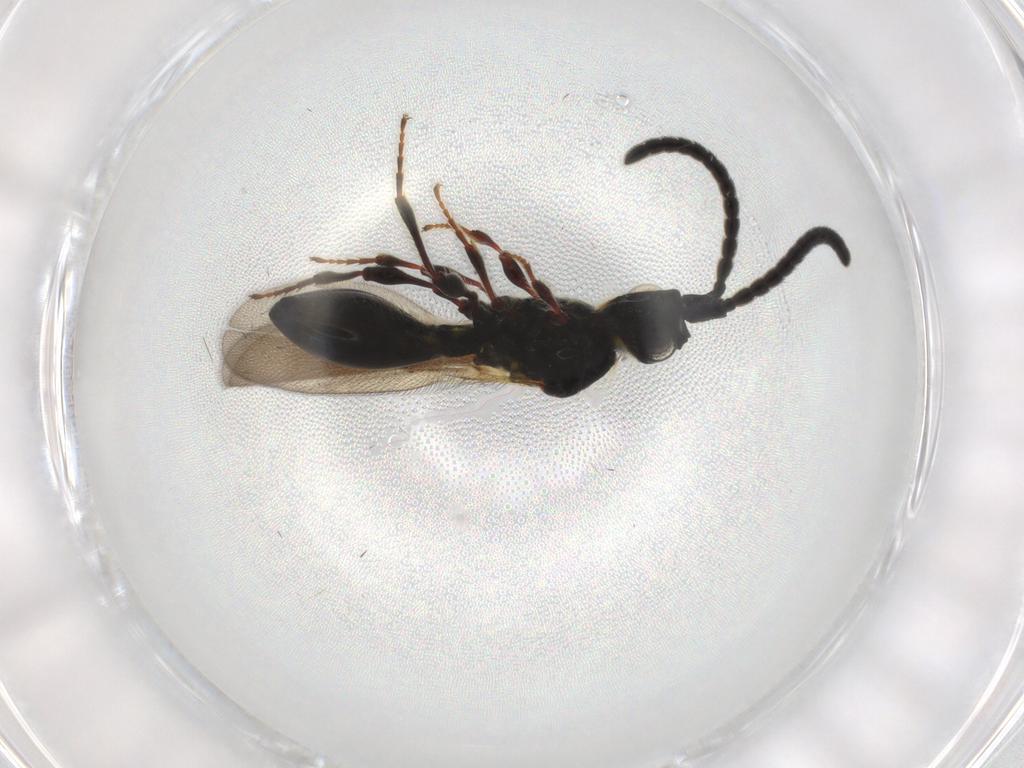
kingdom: Animalia
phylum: Arthropoda
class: Insecta
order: Hymenoptera
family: Diapriidae
